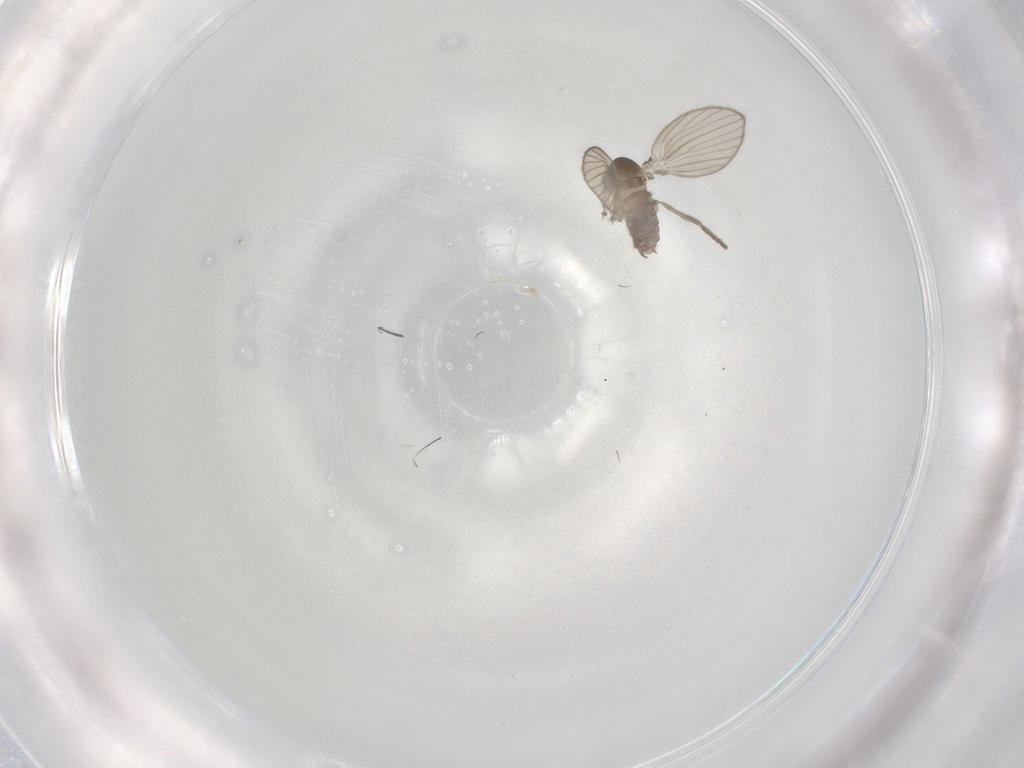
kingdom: Animalia
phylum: Arthropoda
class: Insecta
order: Diptera
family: Psychodidae
